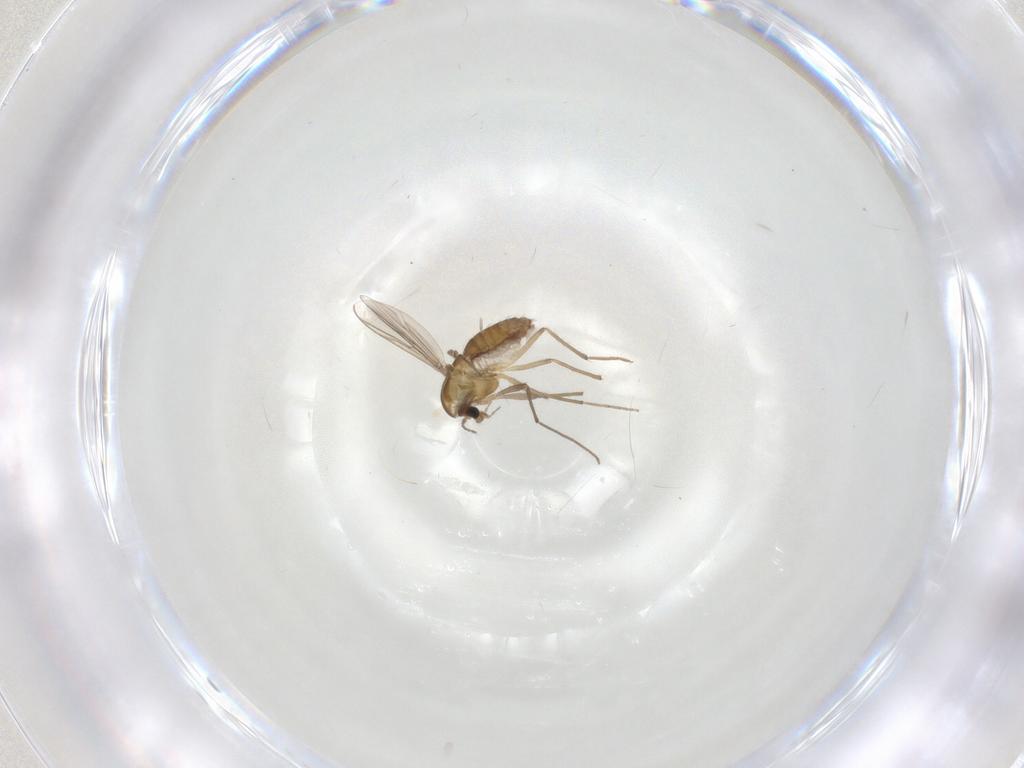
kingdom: Animalia
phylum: Arthropoda
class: Insecta
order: Diptera
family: Chironomidae
